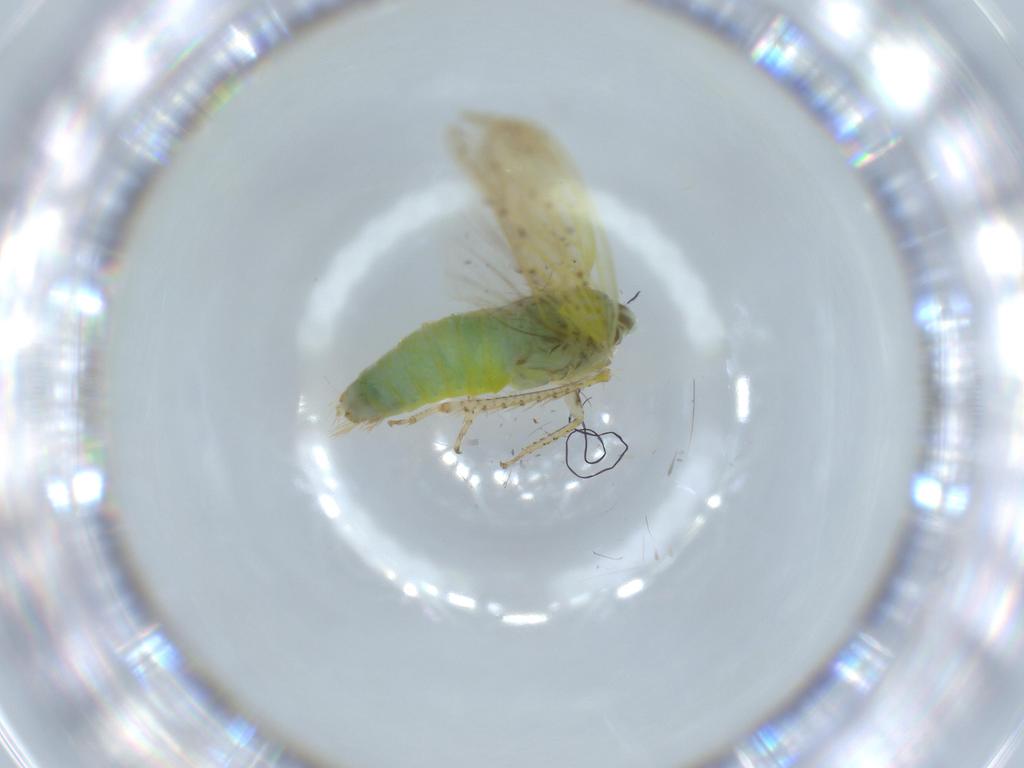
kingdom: Animalia
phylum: Arthropoda
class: Insecta
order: Hemiptera
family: Cicadellidae
